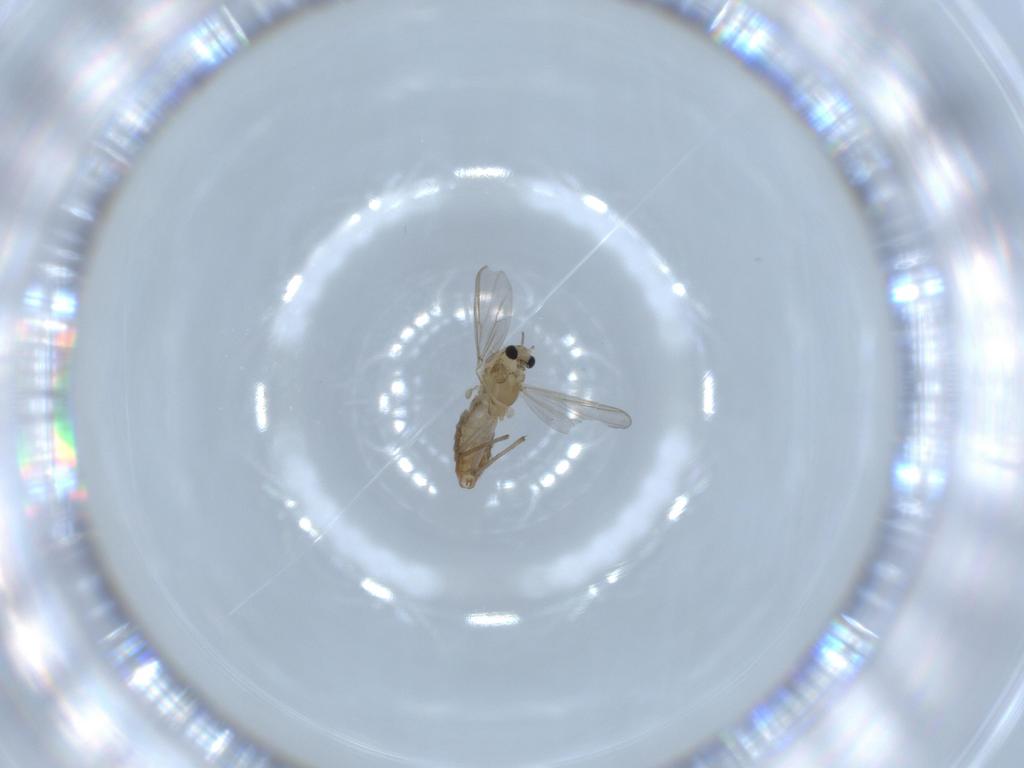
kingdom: Animalia
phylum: Arthropoda
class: Insecta
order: Diptera
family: Chironomidae
